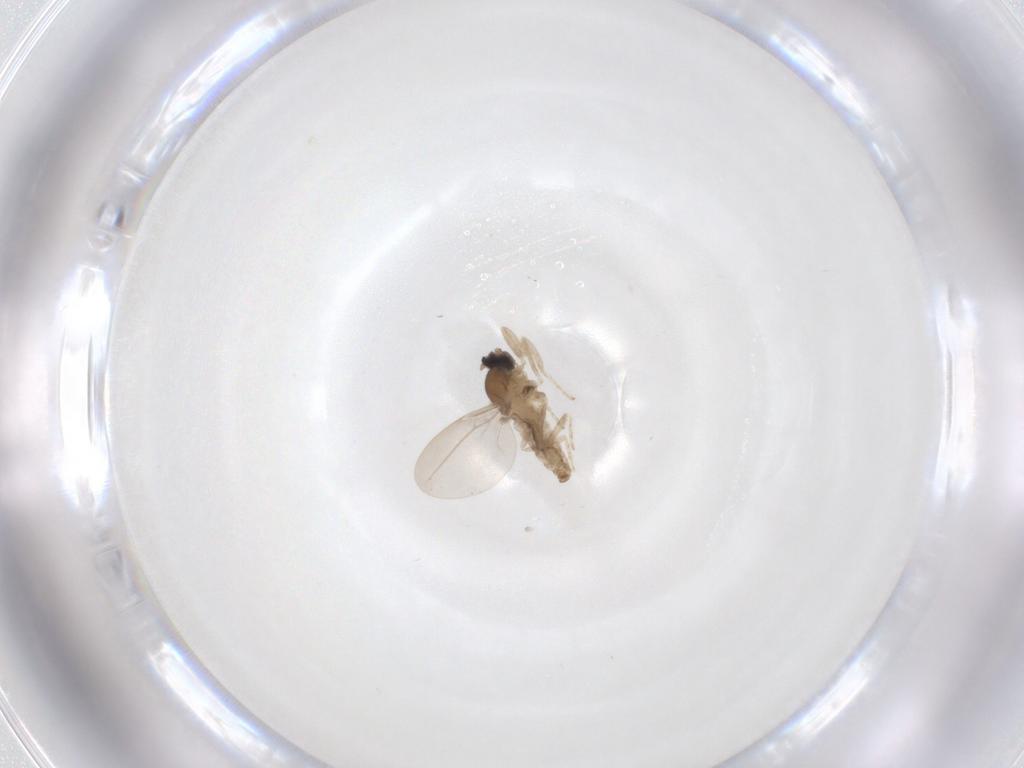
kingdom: Animalia
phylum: Arthropoda
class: Insecta
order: Diptera
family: Cecidomyiidae
